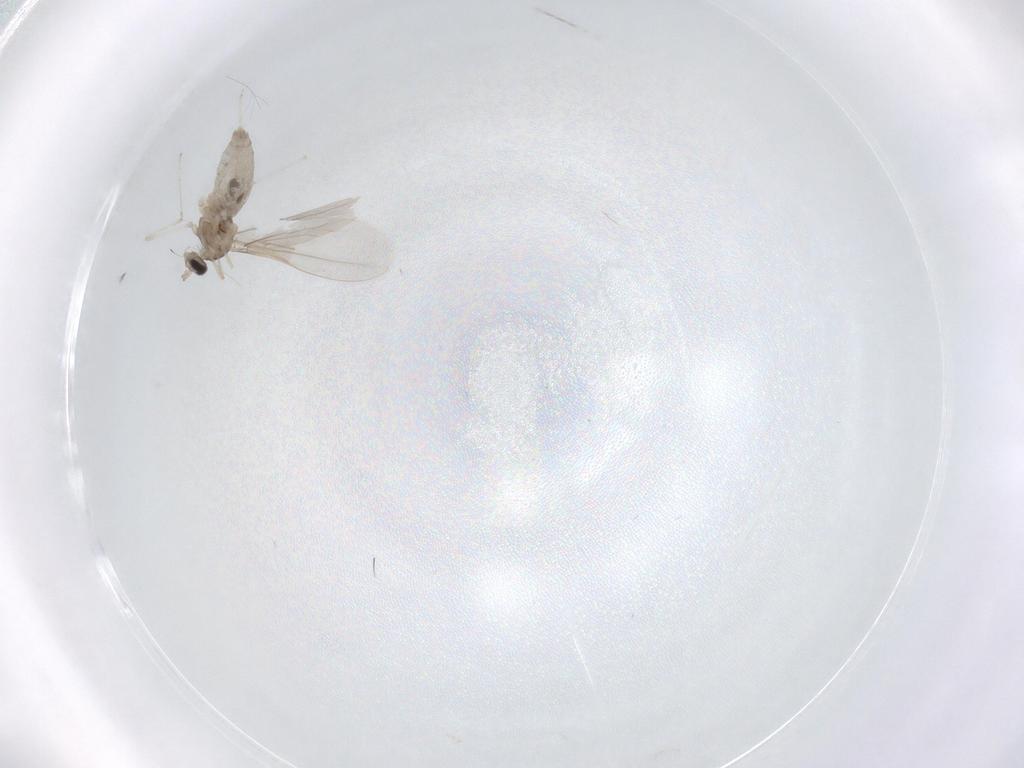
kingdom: Animalia
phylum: Arthropoda
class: Insecta
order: Diptera
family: Cecidomyiidae
